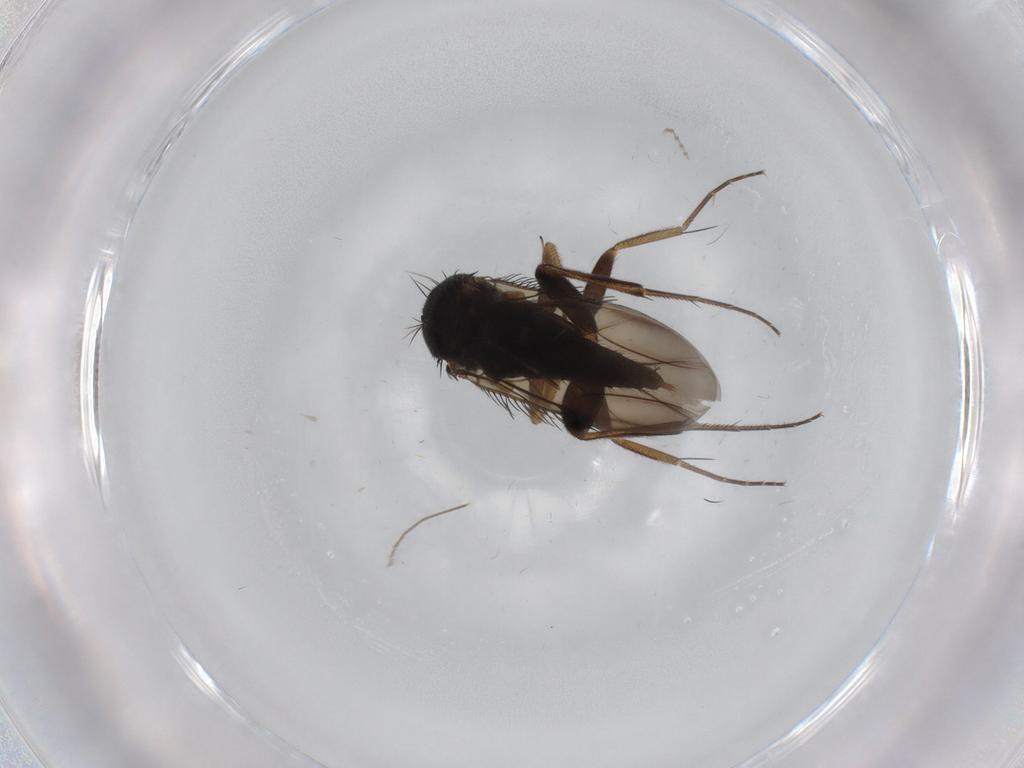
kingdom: Animalia
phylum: Arthropoda
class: Insecta
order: Diptera
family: Phoridae
